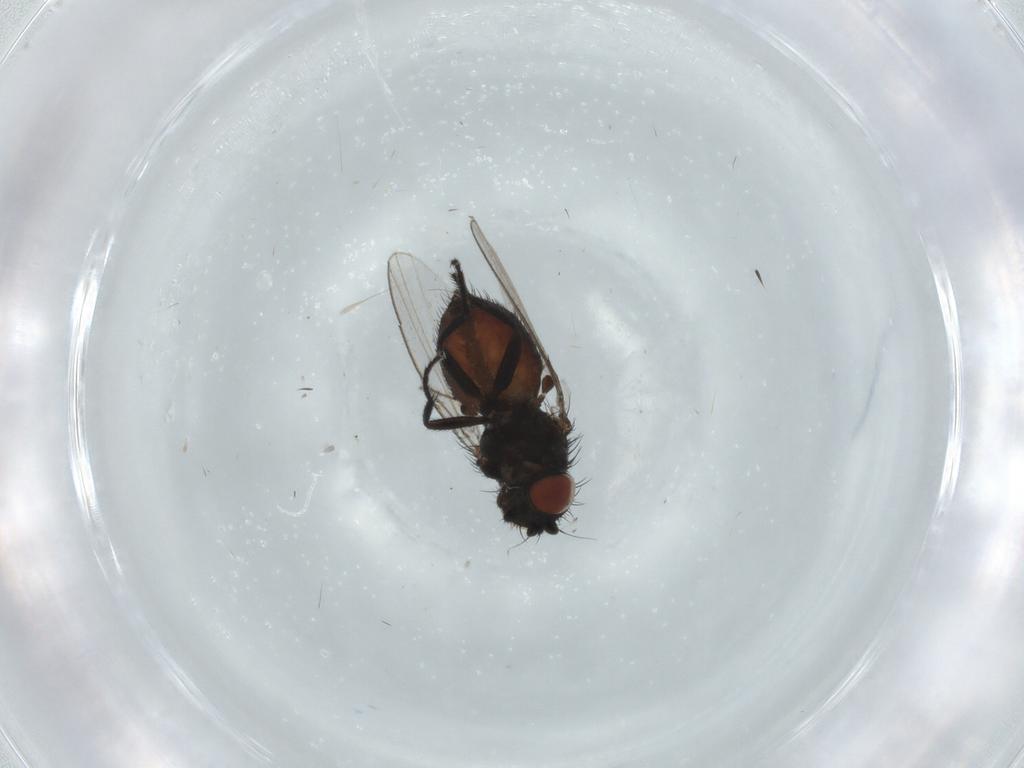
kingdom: Animalia
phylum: Arthropoda
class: Insecta
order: Diptera
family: Milichiidae
